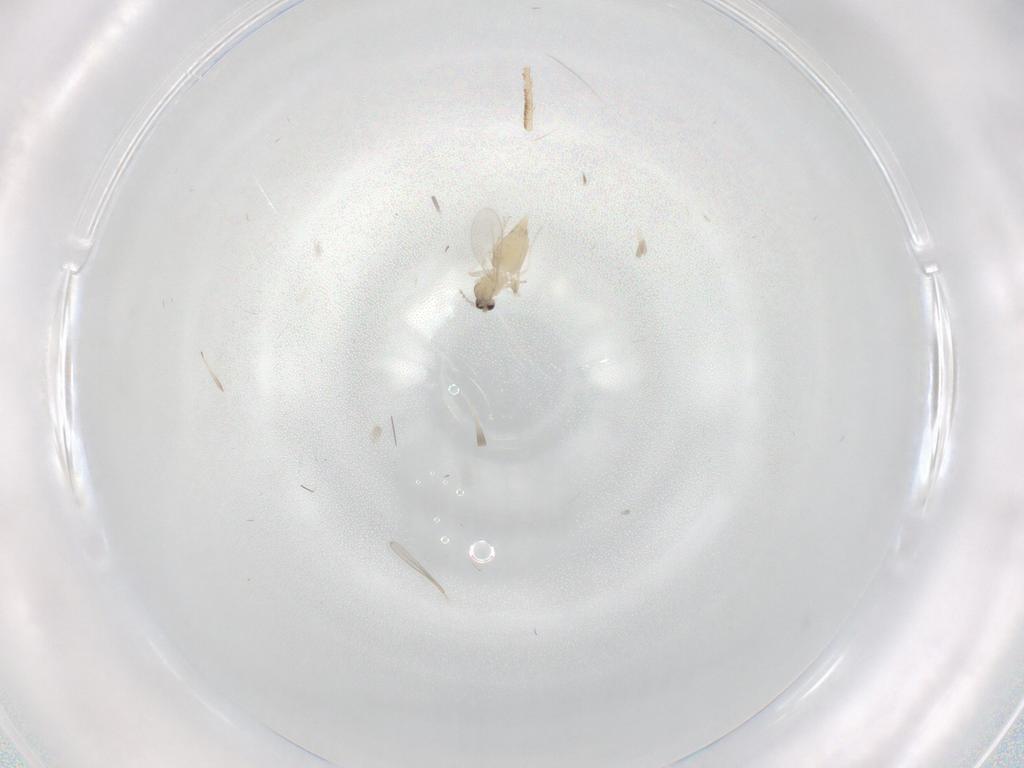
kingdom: Animalia
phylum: Arthropoda
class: Insecta
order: Diptera
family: Cecidomyiidae
